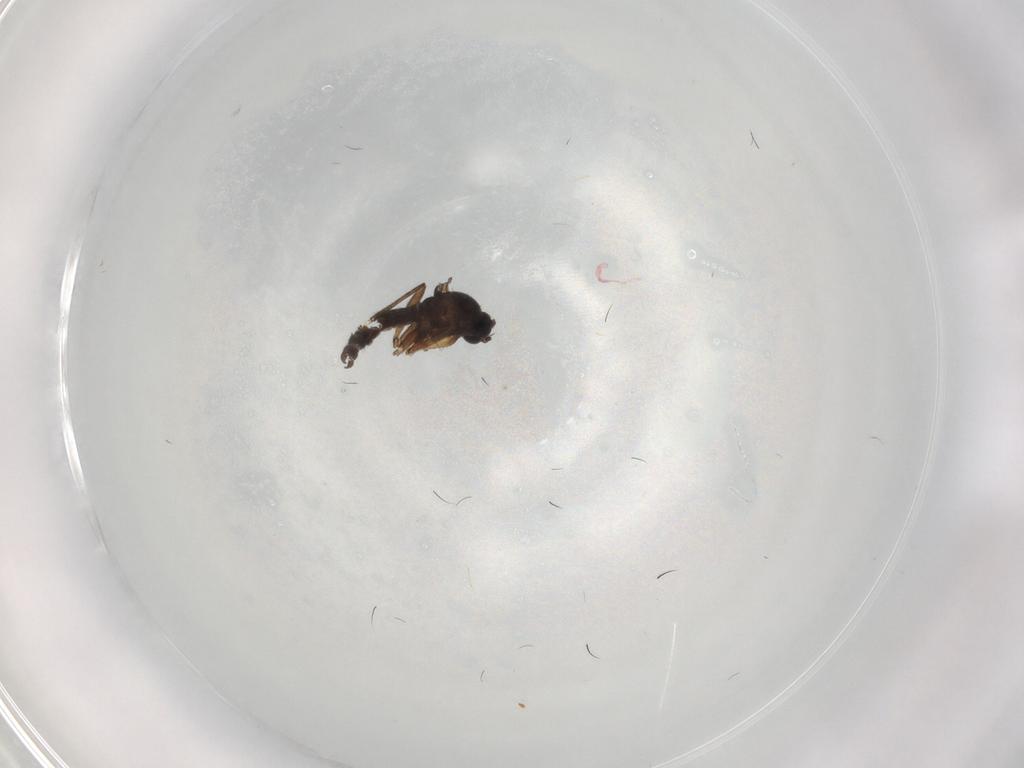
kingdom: Animalia
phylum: Arthropoda
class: Insecta
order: Diptera
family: Sciaridae
